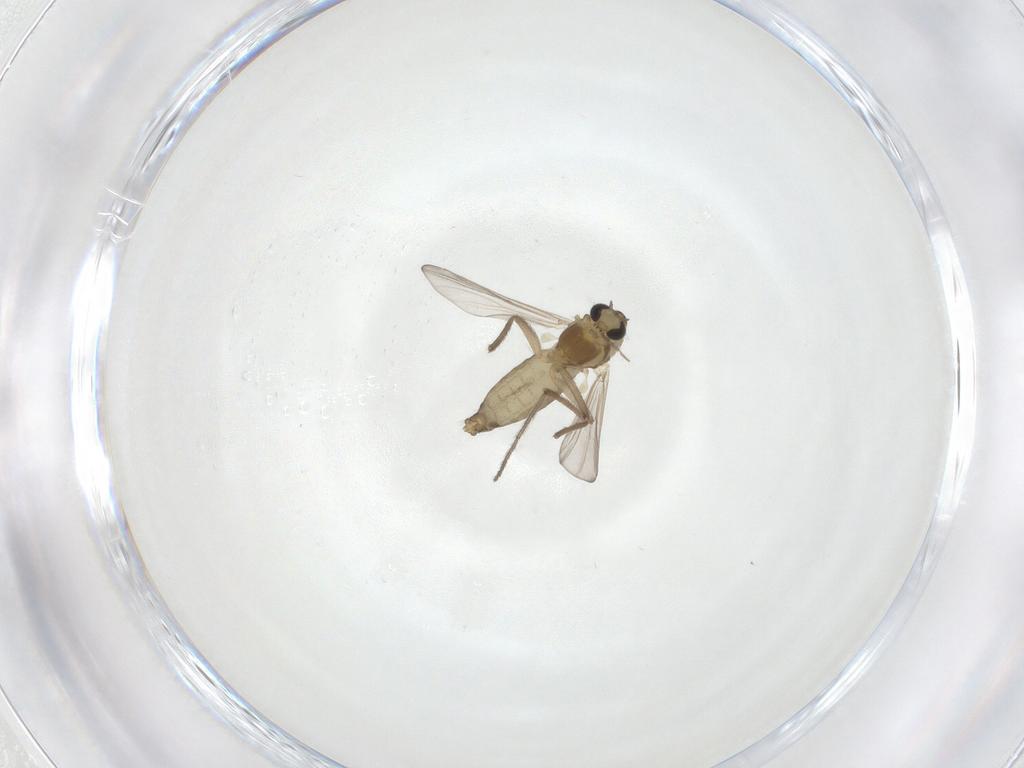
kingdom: Animalia
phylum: Arthropoda
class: Insecta
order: Diptera
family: Chironomidae
